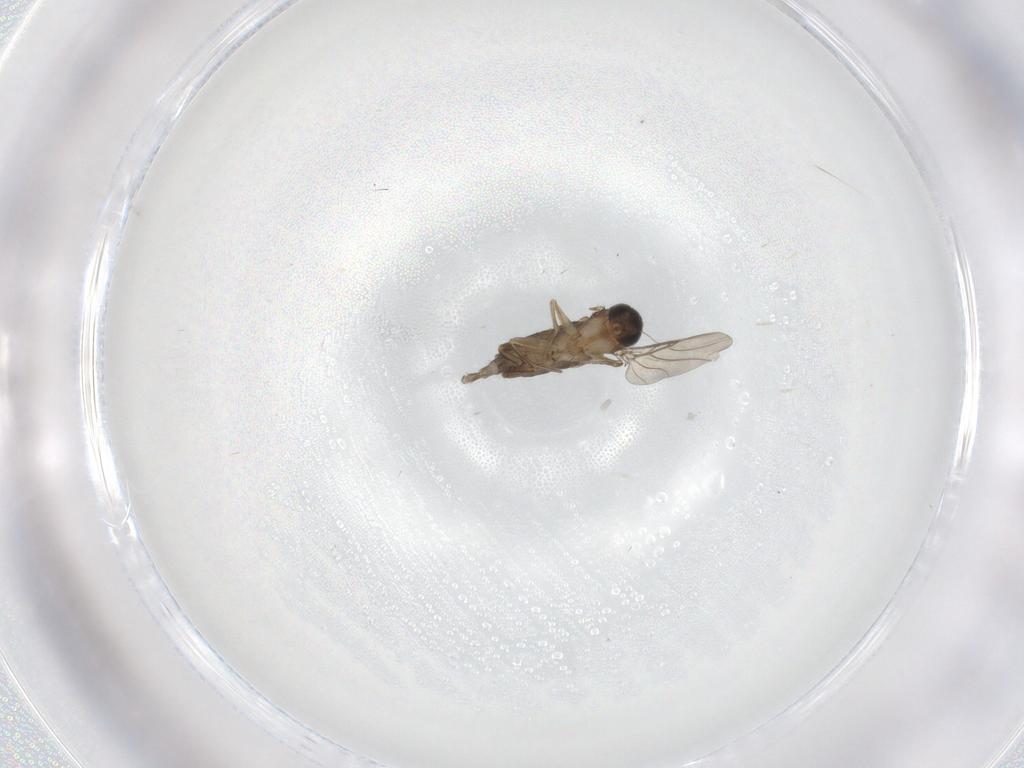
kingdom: Animalia
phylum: Arthropoda
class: Insecta
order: Diptera
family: Phoridae
